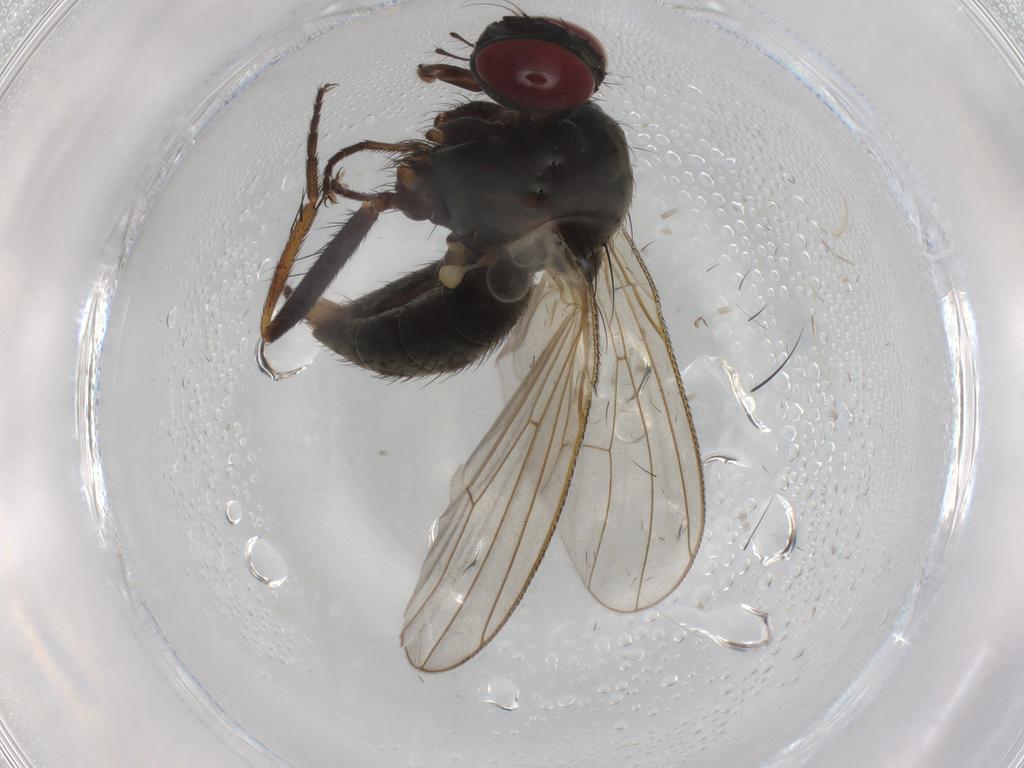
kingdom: Animalia
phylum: Arthropoda
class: Insecta
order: Diptera
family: Muscidae
